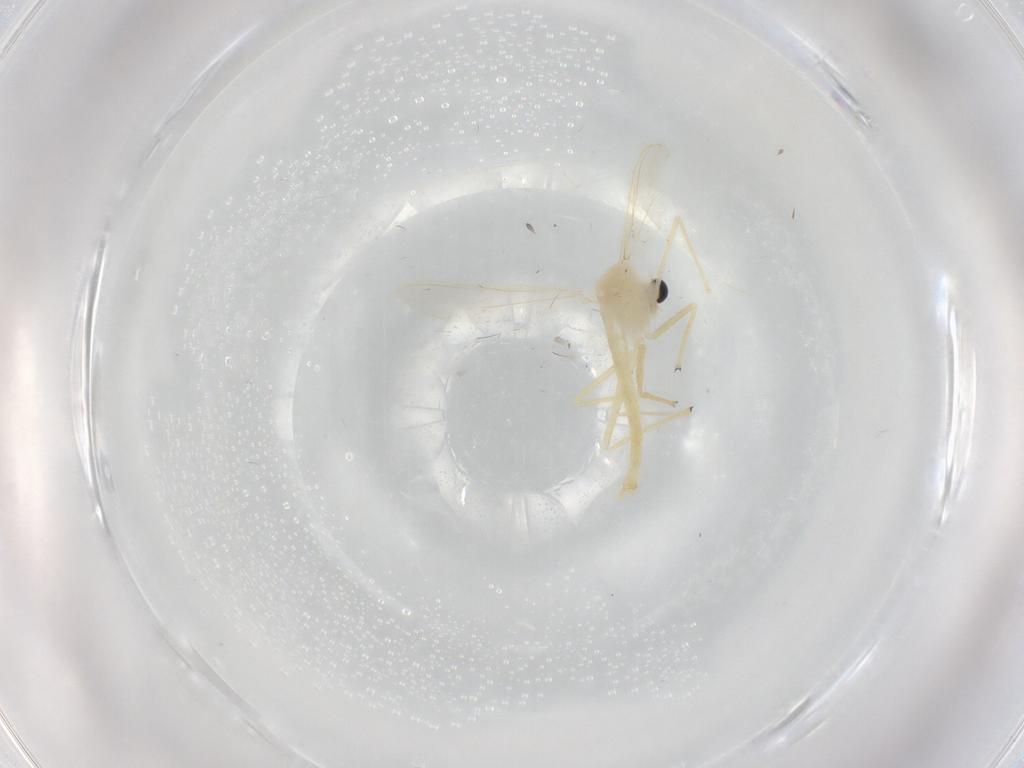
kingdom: Animalia
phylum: Arthropoda
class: Insecta
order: Diptera
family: Chironomidae
